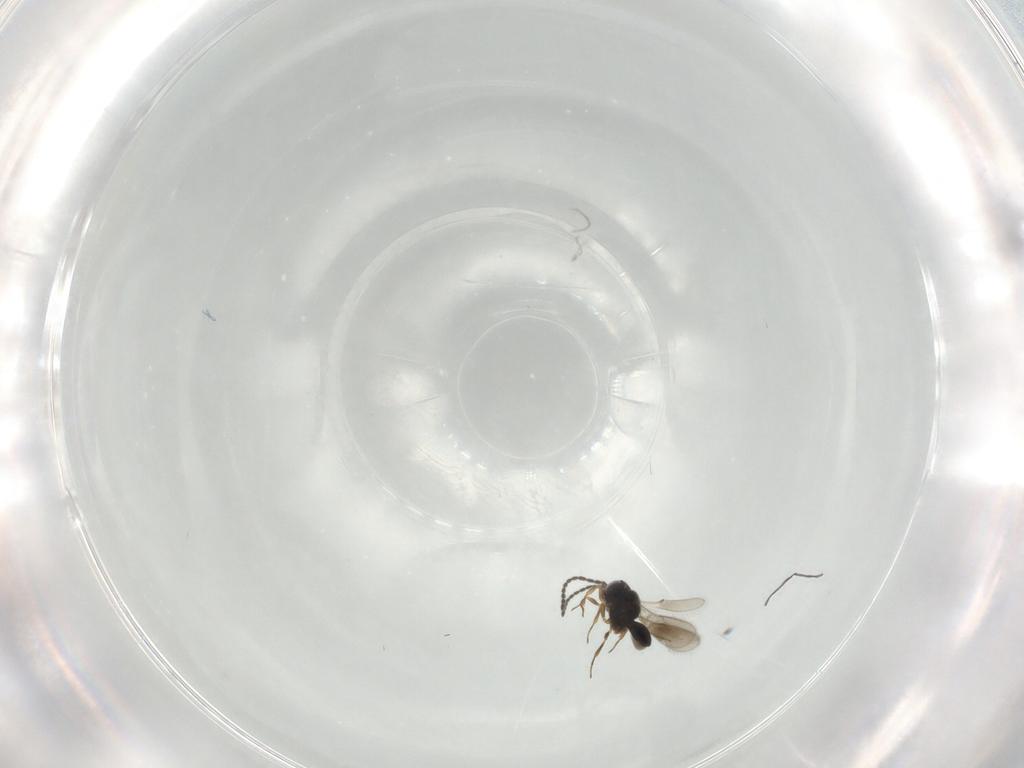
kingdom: Animalia
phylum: Arthropoda
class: Insecta
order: Hymenoptera
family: Scelionidae
